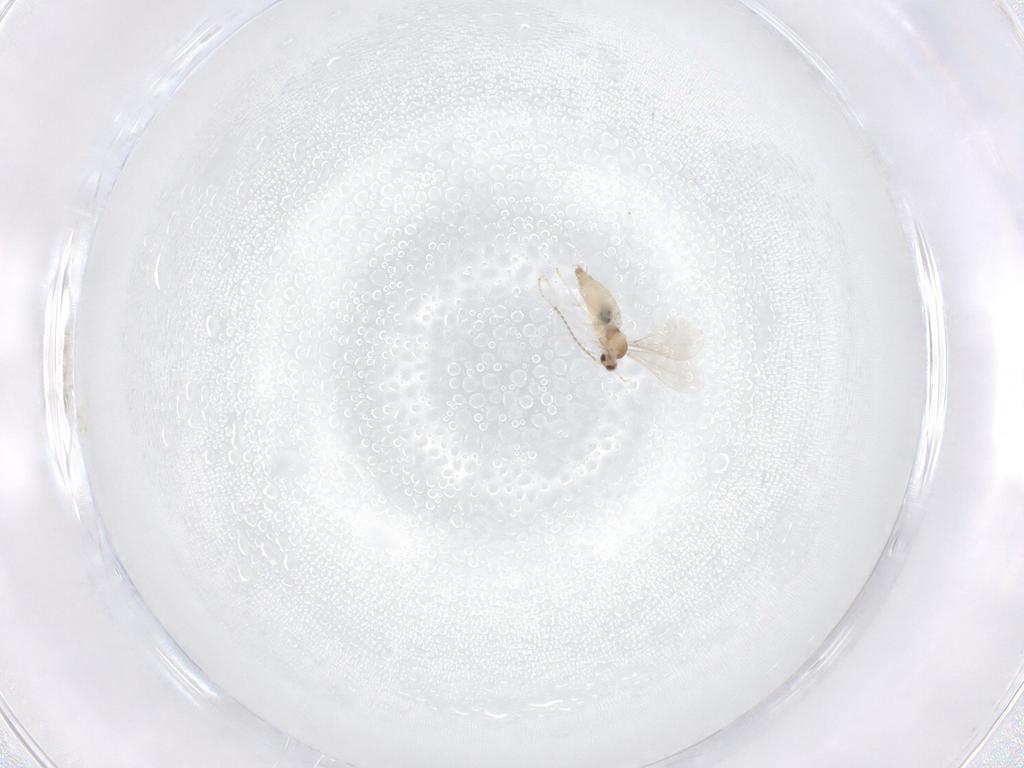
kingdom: Animalia
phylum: Arthropoda
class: Insecta
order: Diptera
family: Cecidomyiidae
